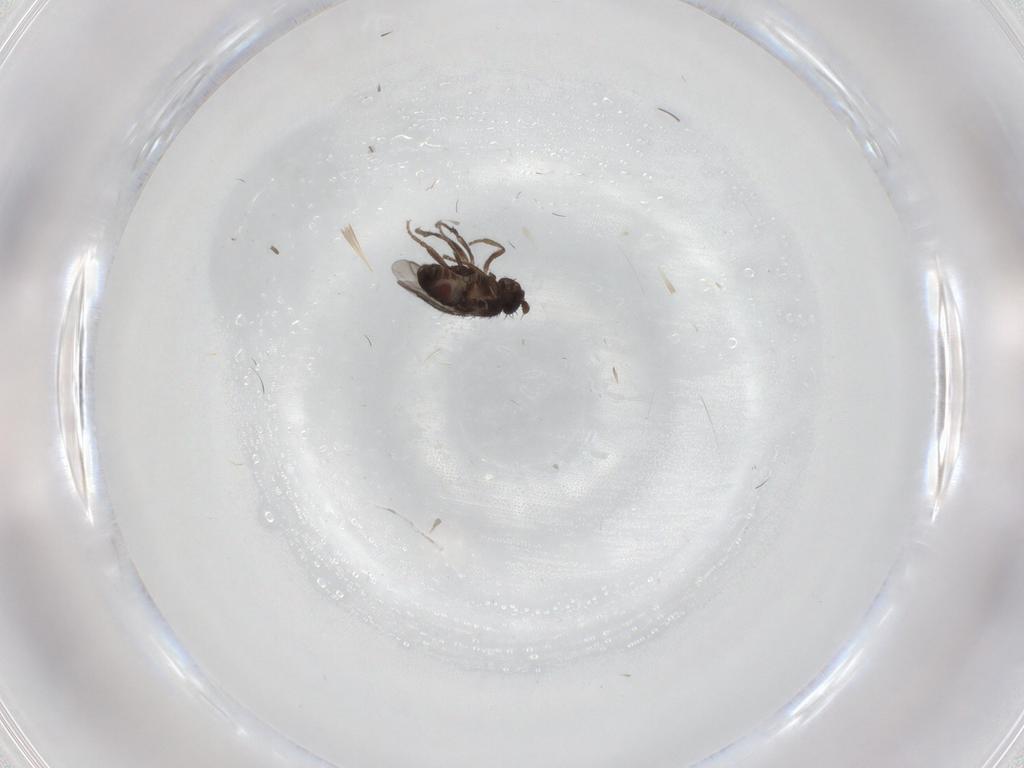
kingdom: Animalia
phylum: Arthropoda
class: Insecta
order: Diptera
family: Sphaeroceridae
